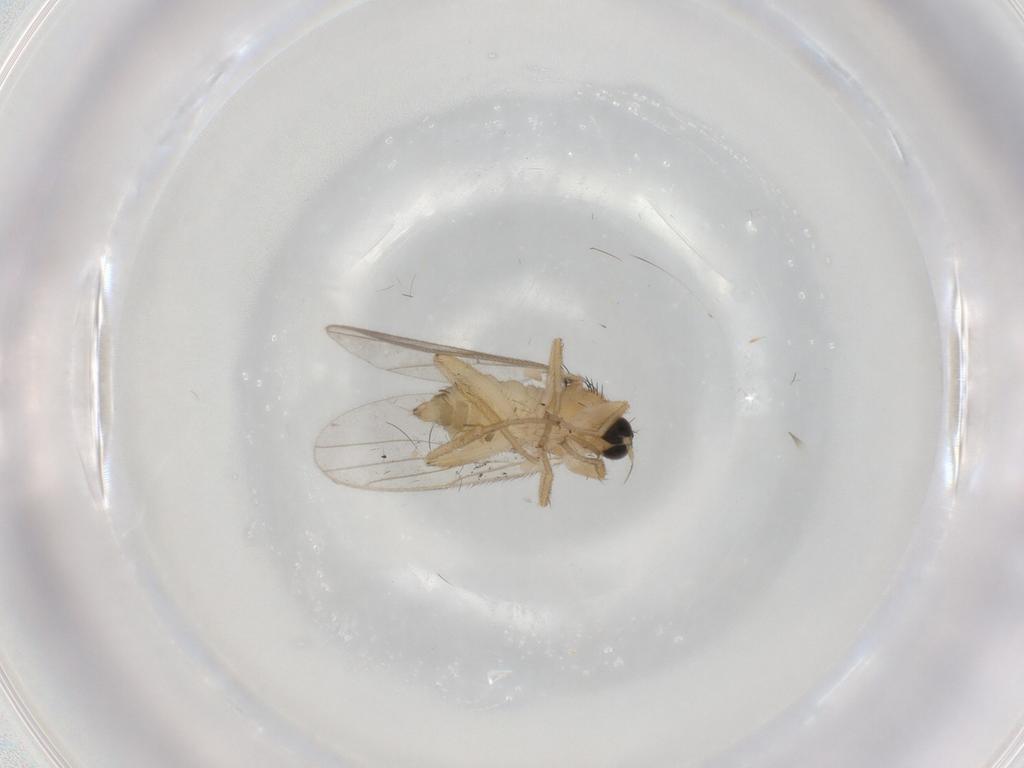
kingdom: Animalia
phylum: Arthropoda
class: Insecta
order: Diptera
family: Hybotidae
